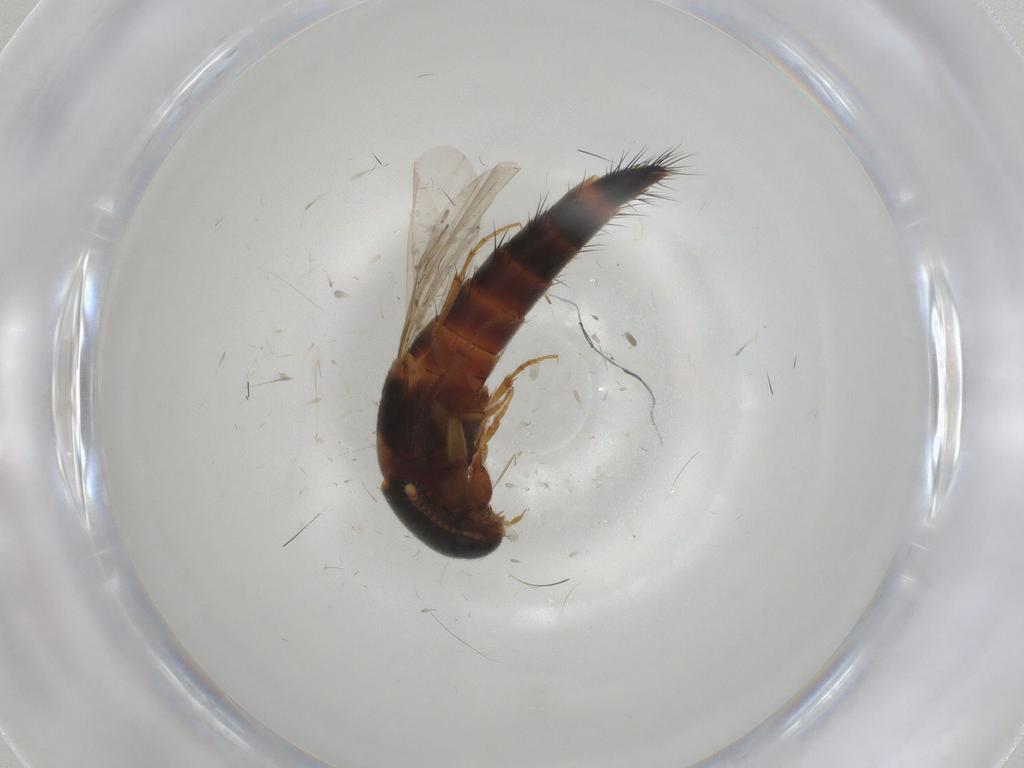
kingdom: Animalia
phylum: Arthropoda
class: Insecta
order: Coleoptera
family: Staphylinidae
